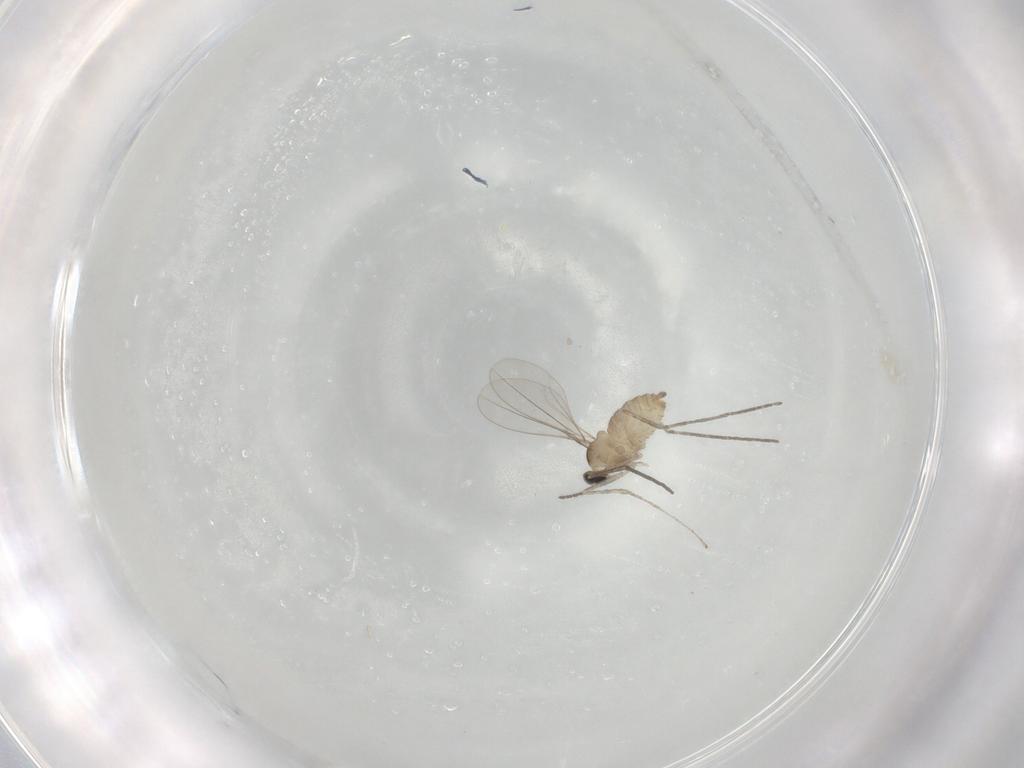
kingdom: Animalia
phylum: Arthropoda
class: Insecta
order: Diptera
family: Cecidomyiidae
